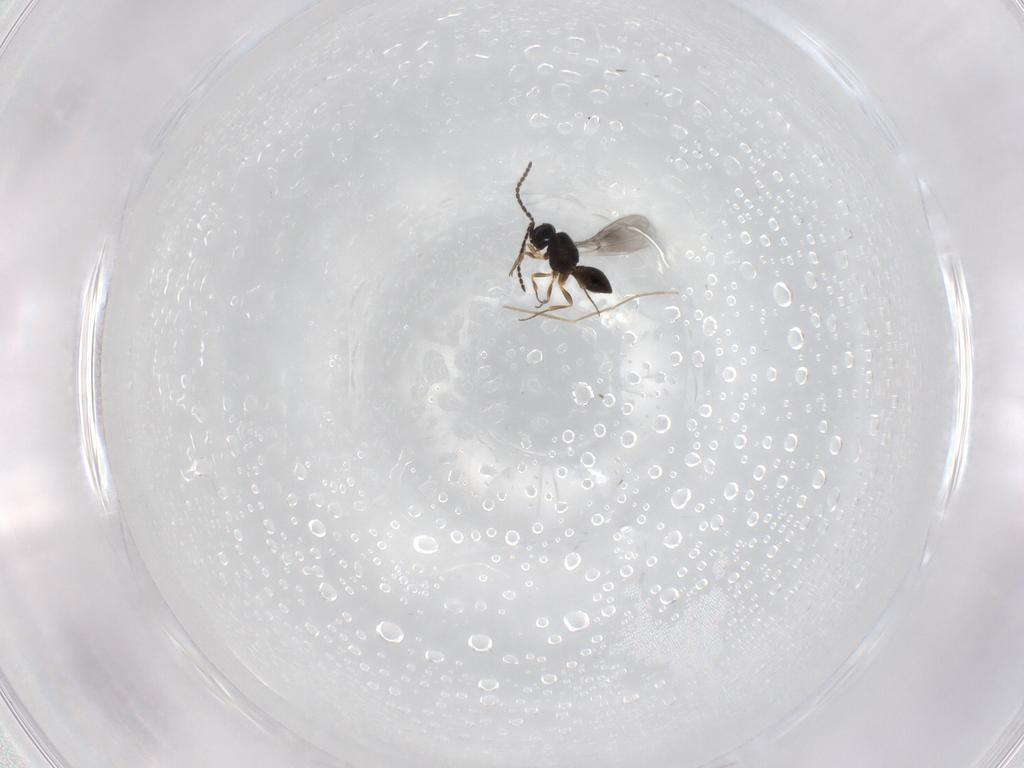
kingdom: Animalia
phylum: Arthropoda
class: Insecta
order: Hymenoptera
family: Scelionidae
